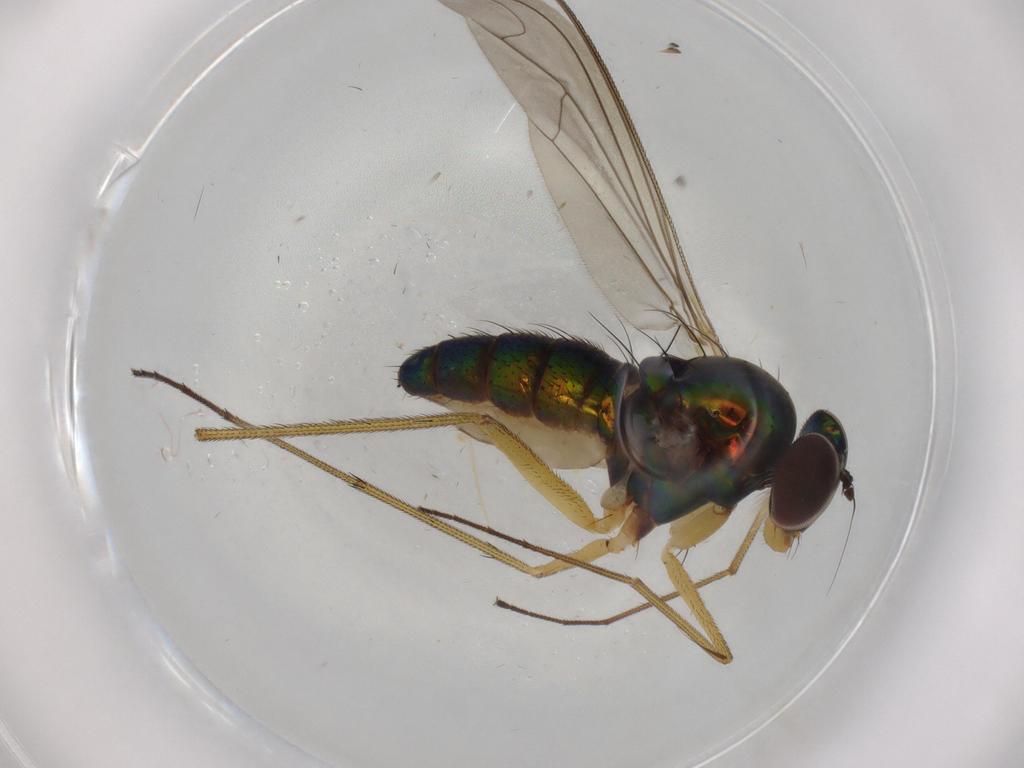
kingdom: Animalia
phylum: Arthropoda
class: Insecta
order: Diptera
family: Dolichopodidae
